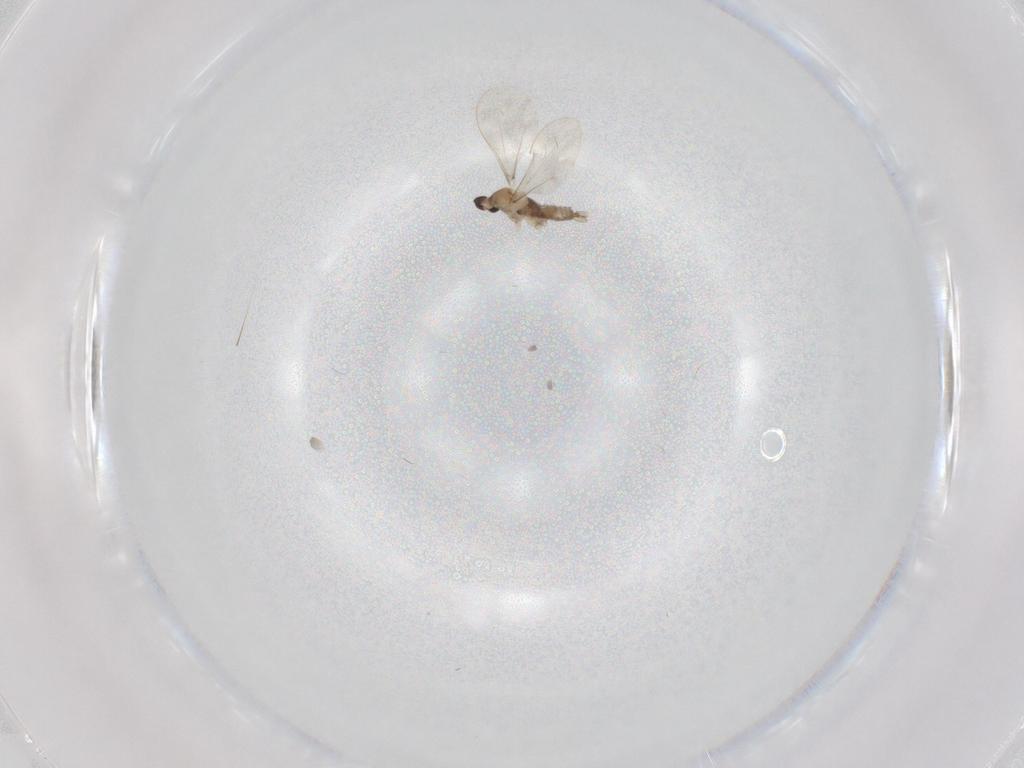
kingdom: Animalia
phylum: Arthropoda
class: Insecta
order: Diptera
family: Cecidomyiidae
